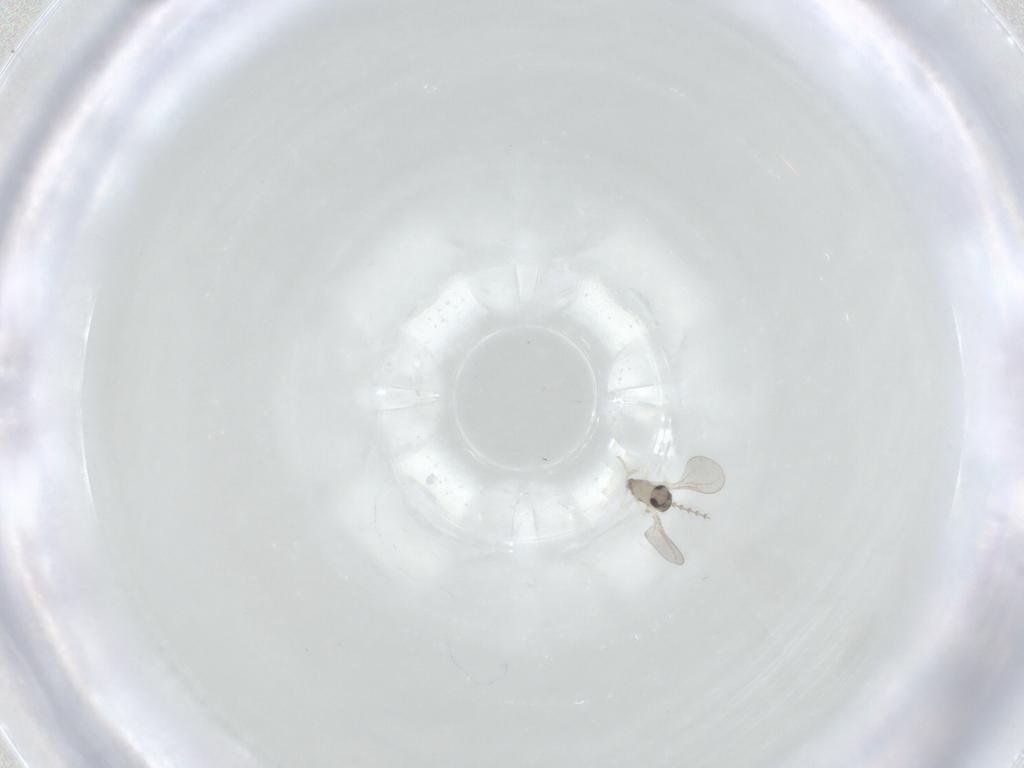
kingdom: Animalia
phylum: Arthropoda
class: Insecta
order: Diptera
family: Cecidomyiidae
